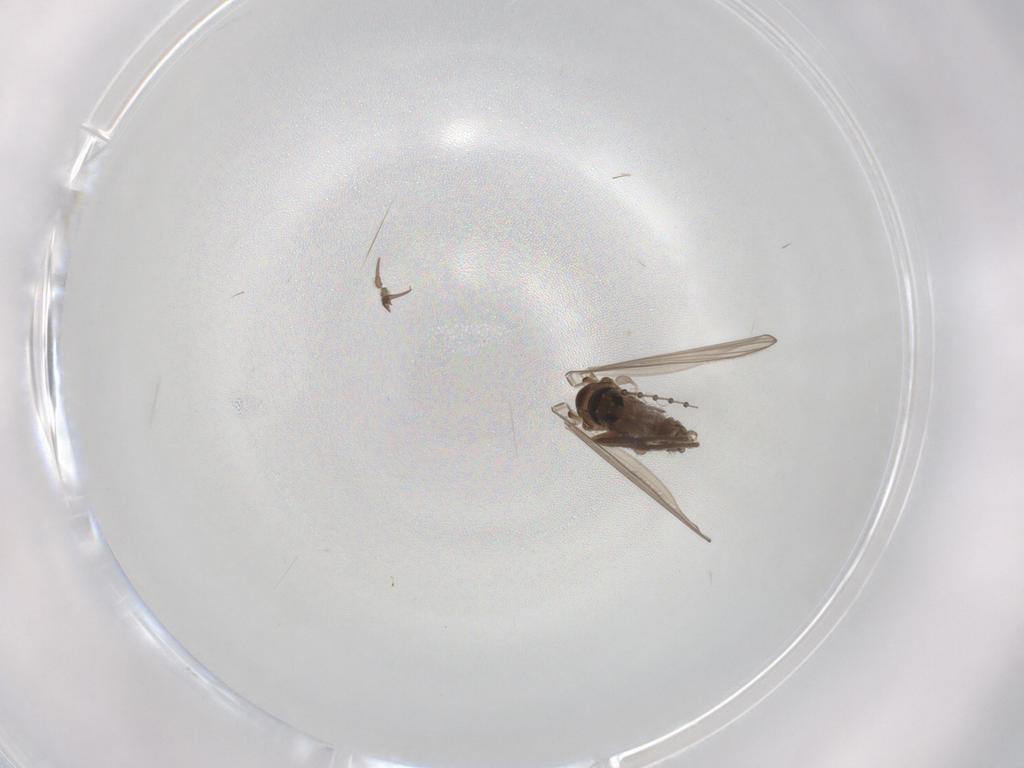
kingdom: Animalia
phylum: Arthropoda
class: Insecta
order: Diptera
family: Psychodidae
